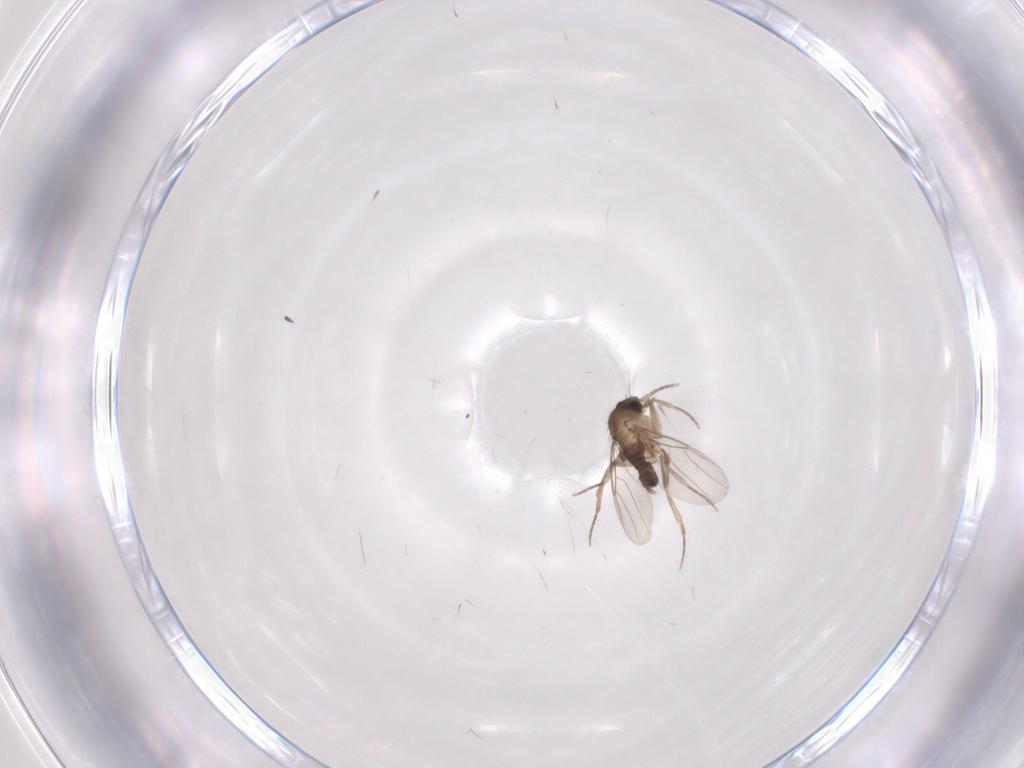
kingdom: Animalia
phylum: Arthropoda
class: Insecta
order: Diptera
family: Phoridae
